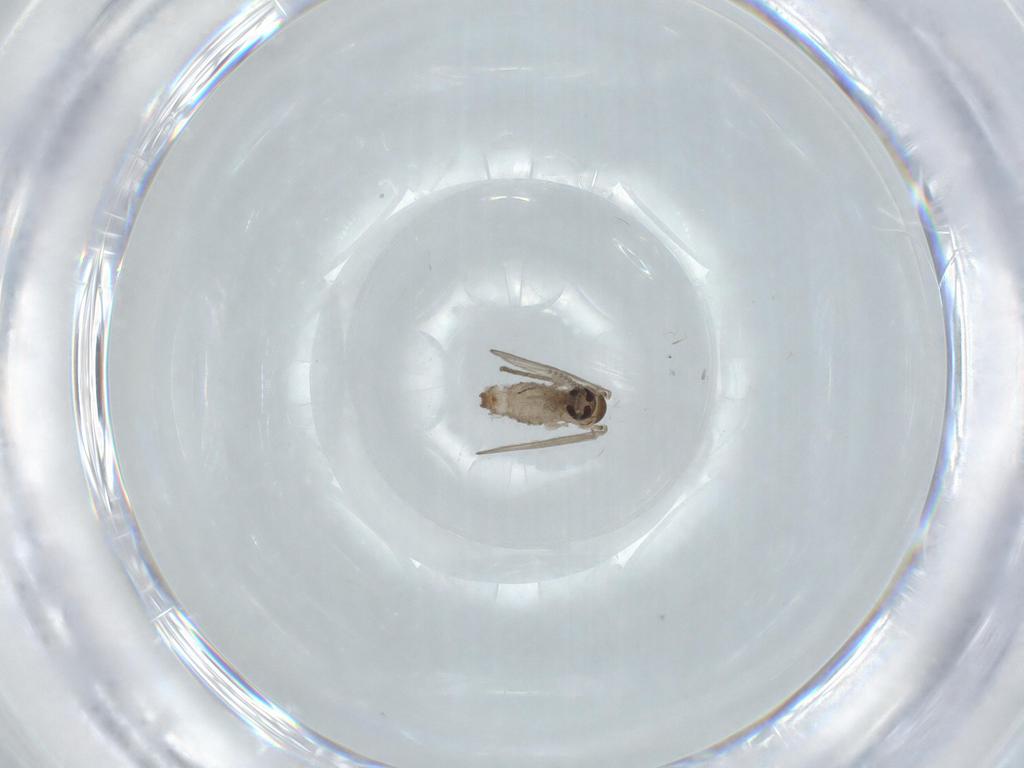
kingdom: Animalia
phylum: Arthropoda
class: Insecta
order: Diptera
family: Psychodidae
